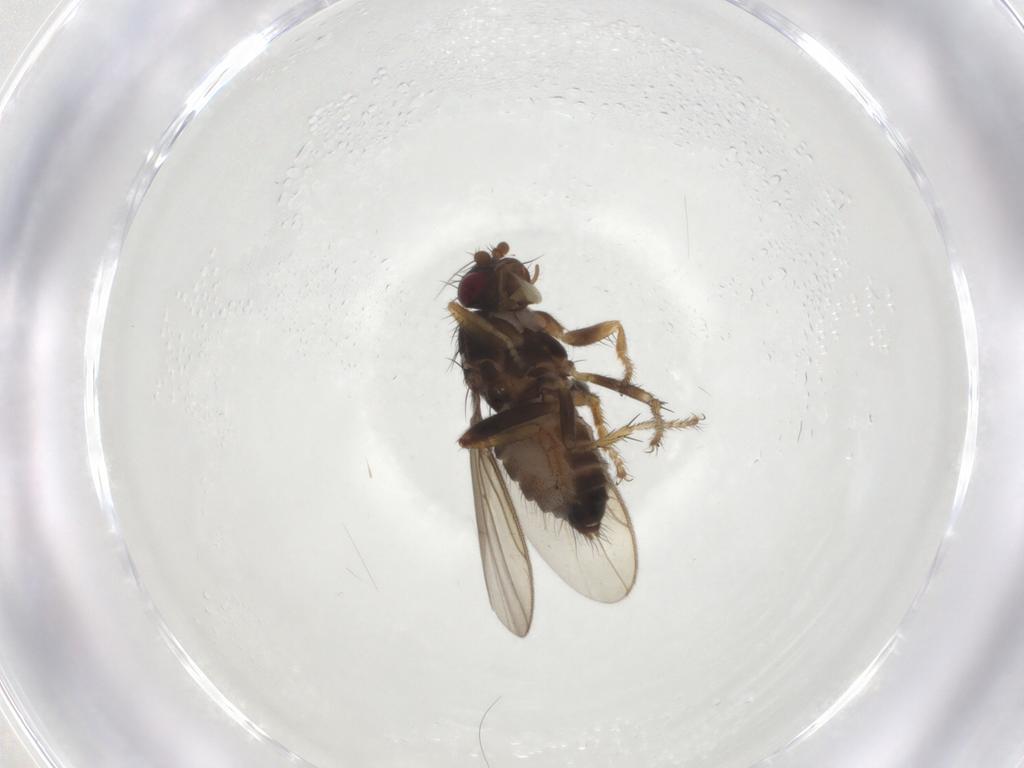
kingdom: Animalia
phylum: Arthropoda
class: Insecta
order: Diptera
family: Sphaeroceridae
